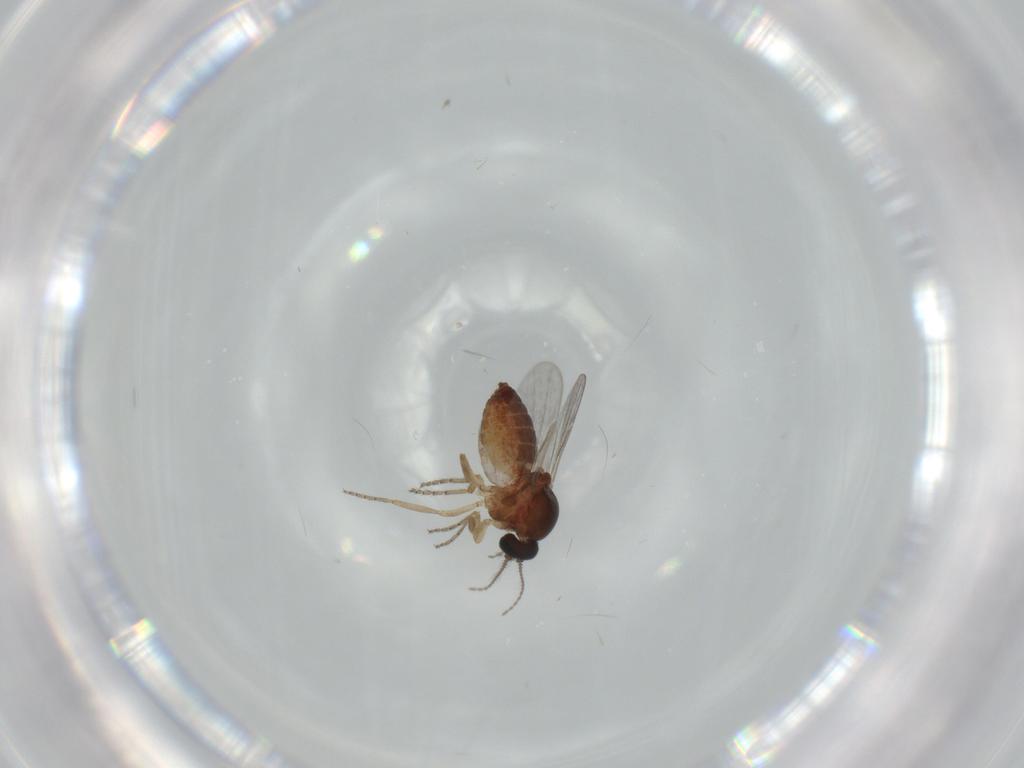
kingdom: Animalia
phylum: Arthropoda
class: Insecta
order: Diptera
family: Ceratopogonidae
